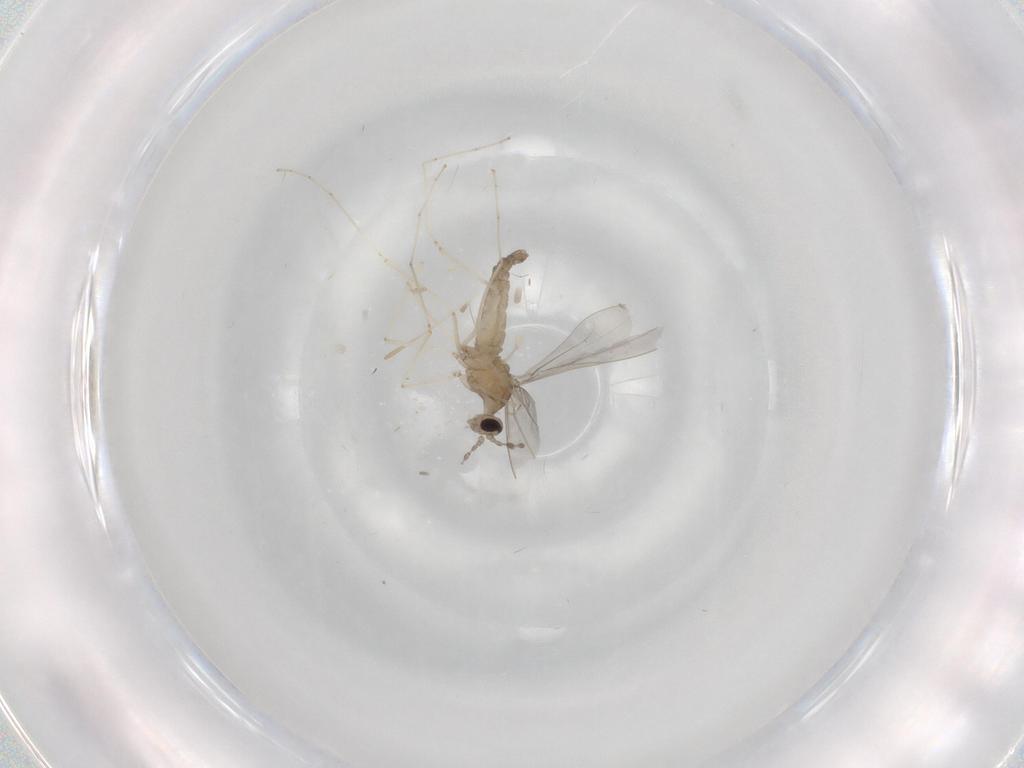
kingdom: Animalia
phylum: Arthropoda
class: Insecta
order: Diptera
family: Cecidomyiidae
